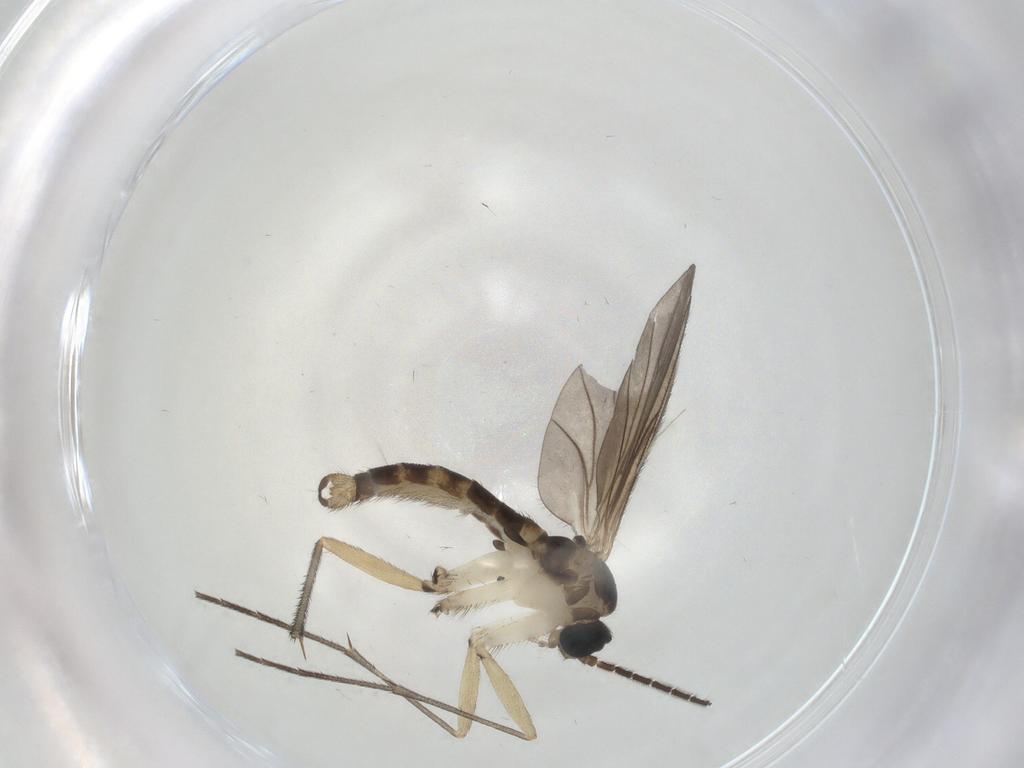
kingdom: Animalia
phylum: Arthropoda
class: Insecta
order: Diptera
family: Sciaridae
